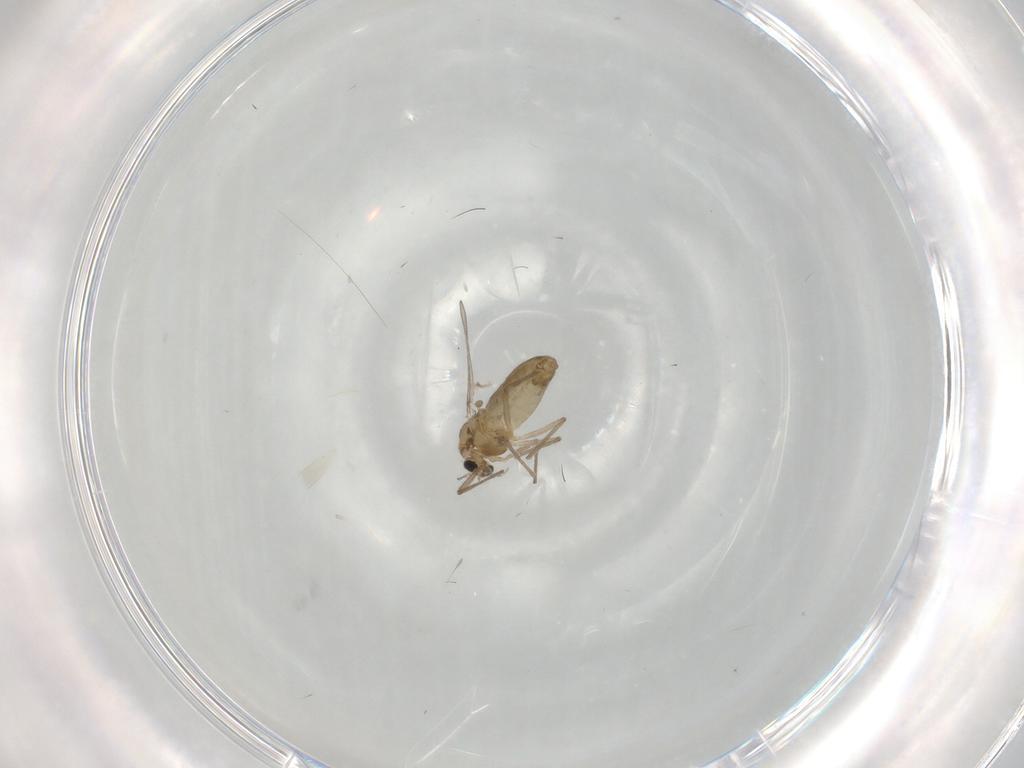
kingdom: Animalia
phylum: Arthropoda
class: Insecta
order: Diptera
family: Chironomidae
